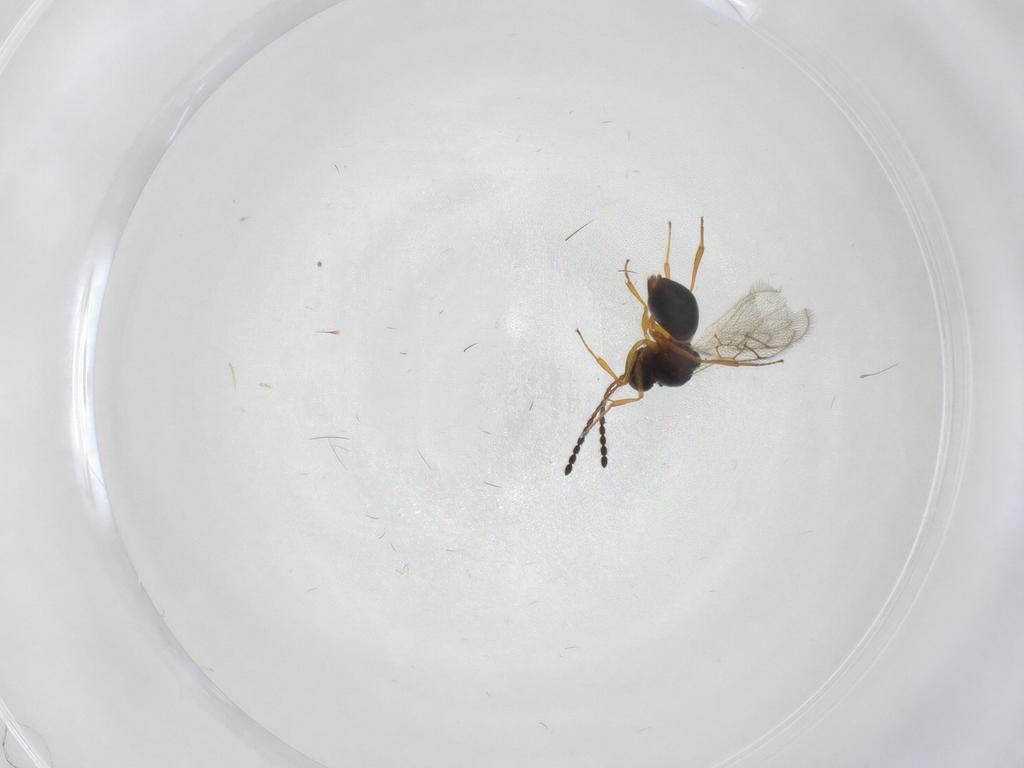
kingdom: Animalia
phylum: Arthropoda
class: Insecta
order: Hymenoptera
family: Figitidae
